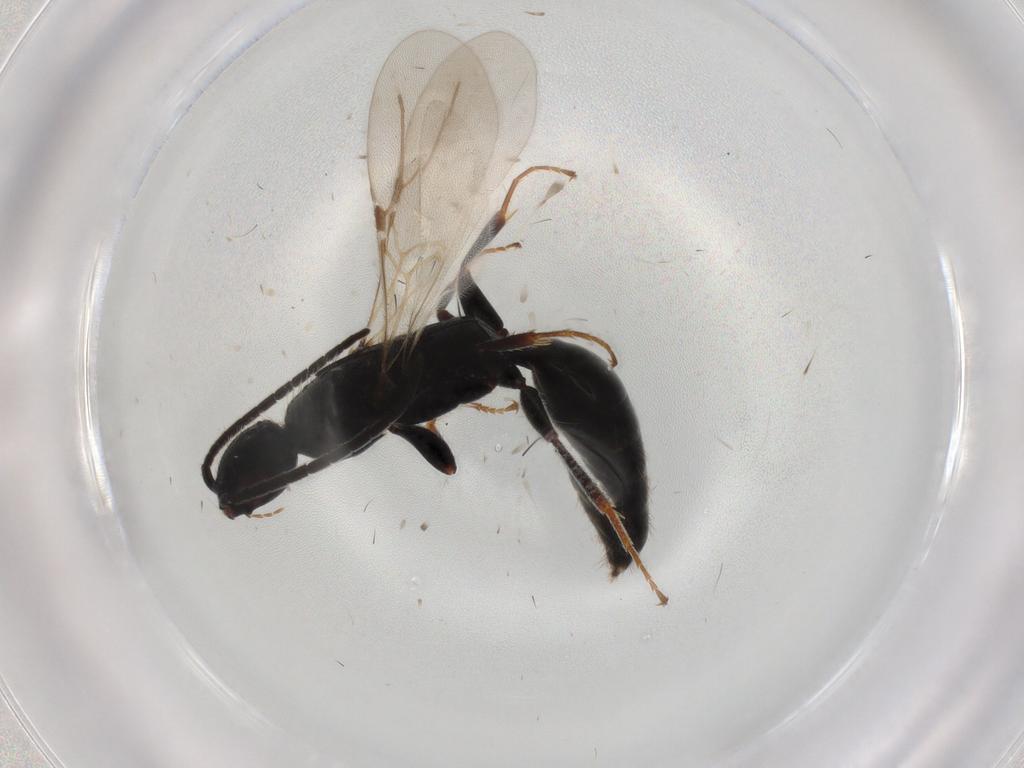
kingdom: Animalia
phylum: Arthropoda
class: Insecta
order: Hymenoptera
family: Bethylidae
